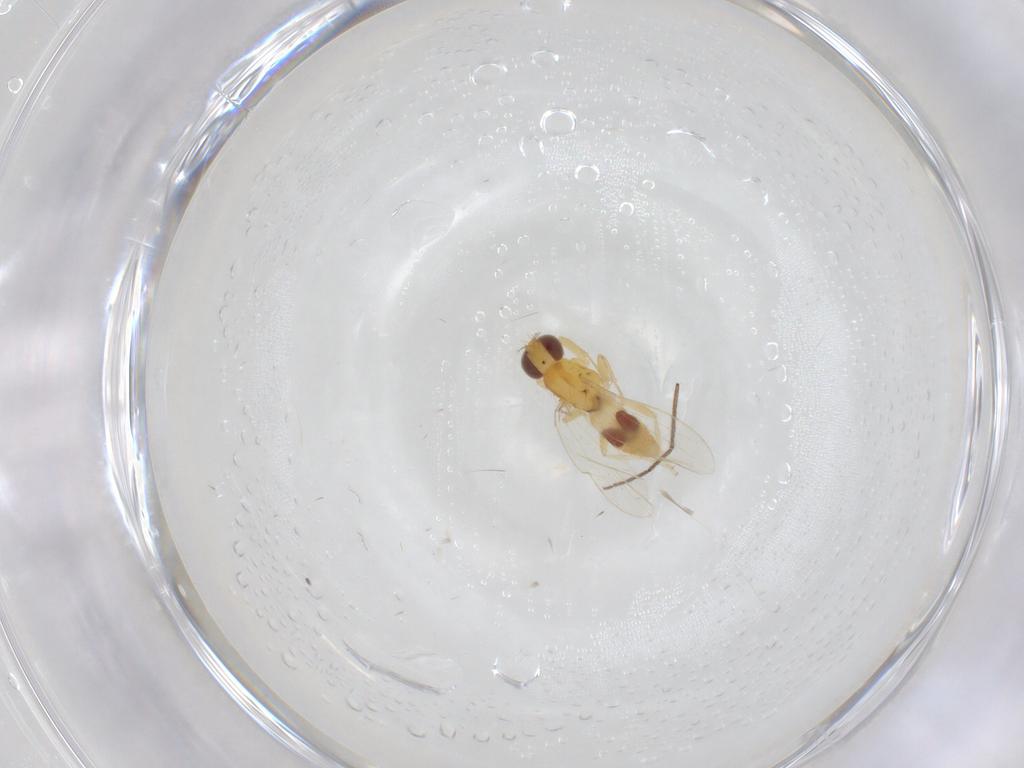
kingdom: Animalia
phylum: Arthropoda
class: Insecta
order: Diptera
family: Periscelididae
